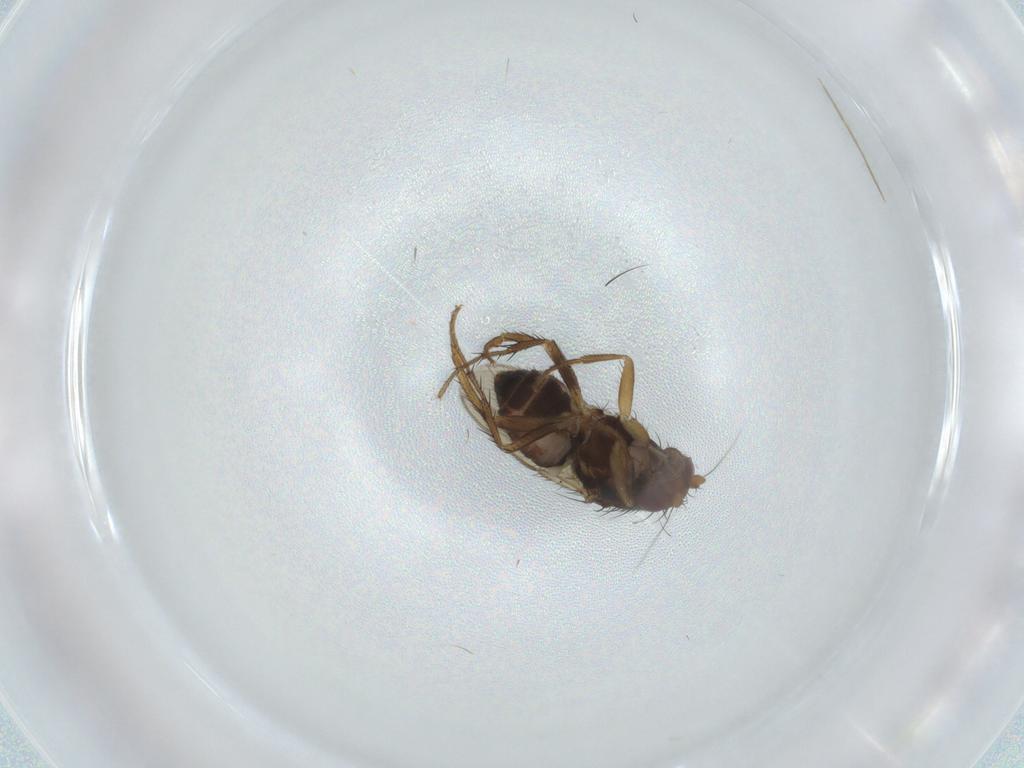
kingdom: Animalia
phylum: Arthropoda
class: Insecta
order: Diptera
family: Sphaeroceridae
